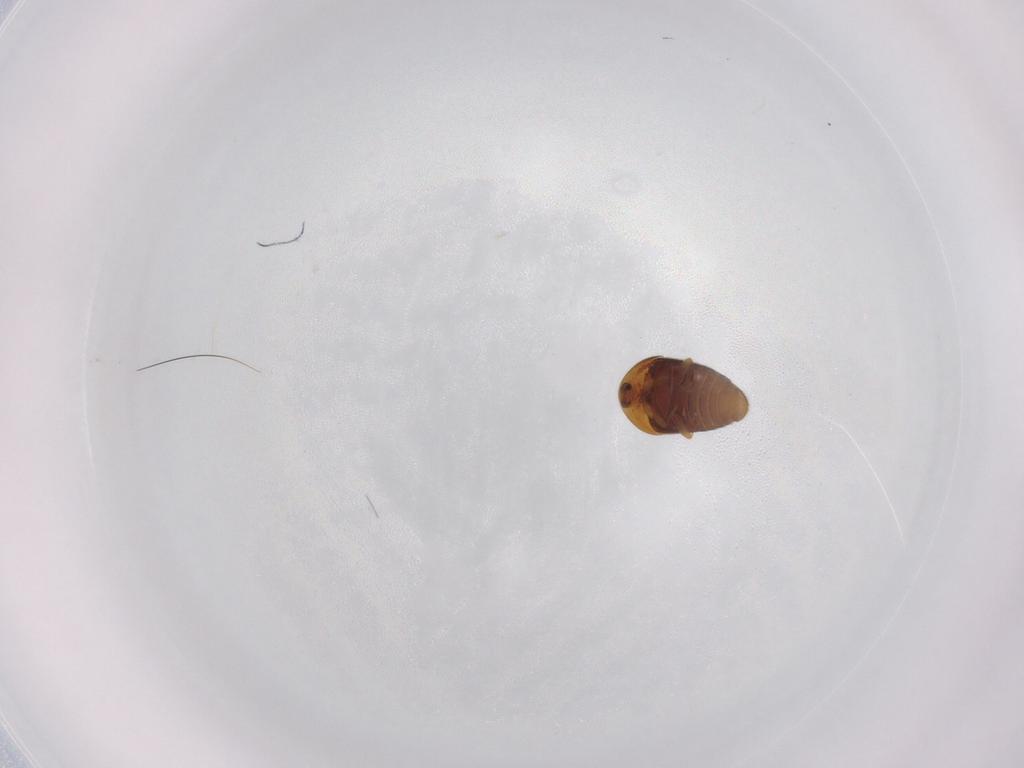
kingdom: Animalia
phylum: Arthropoda
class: Insecta
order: Coleoptera
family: Corylophidae
